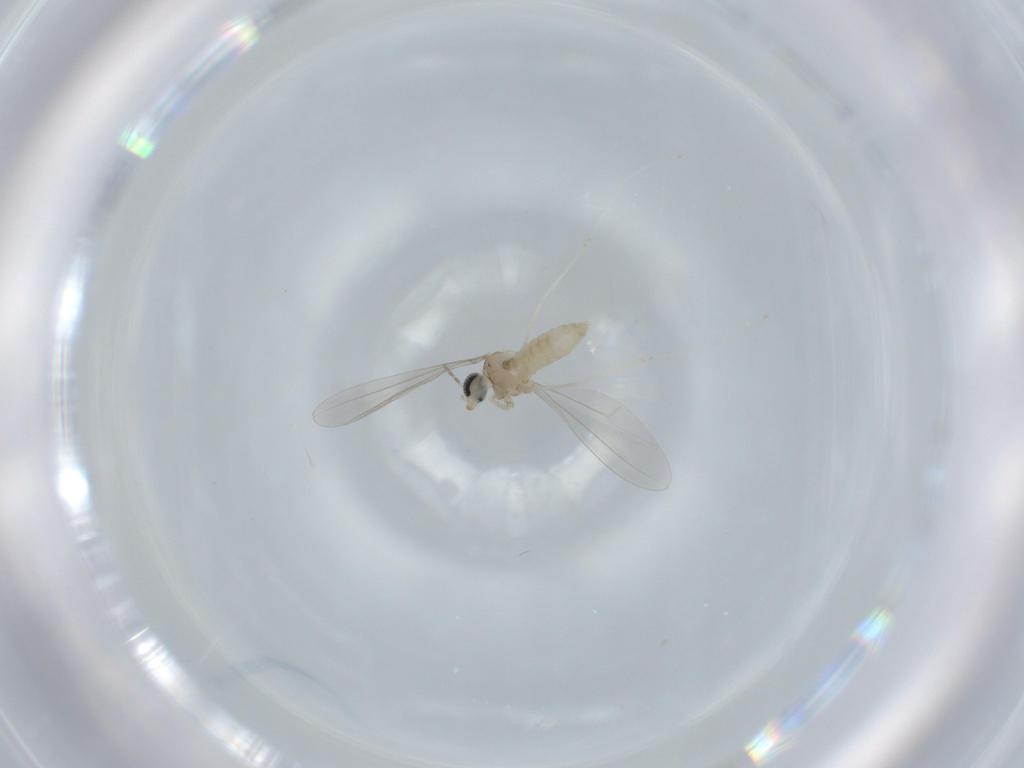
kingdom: Animalia
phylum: Arthropoda
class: Insecta
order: Diptera
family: Cecidomyiidae
